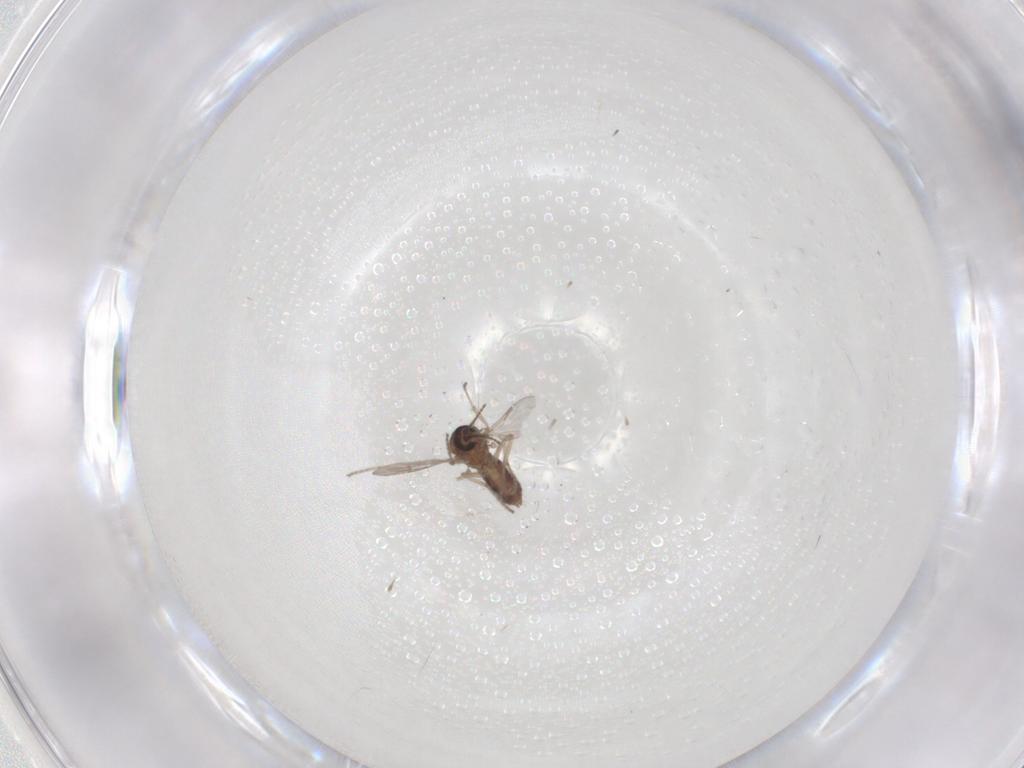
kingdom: Animalia
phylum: Arthropoda
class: Insecta
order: Diptera
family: Ceratopogonidae
